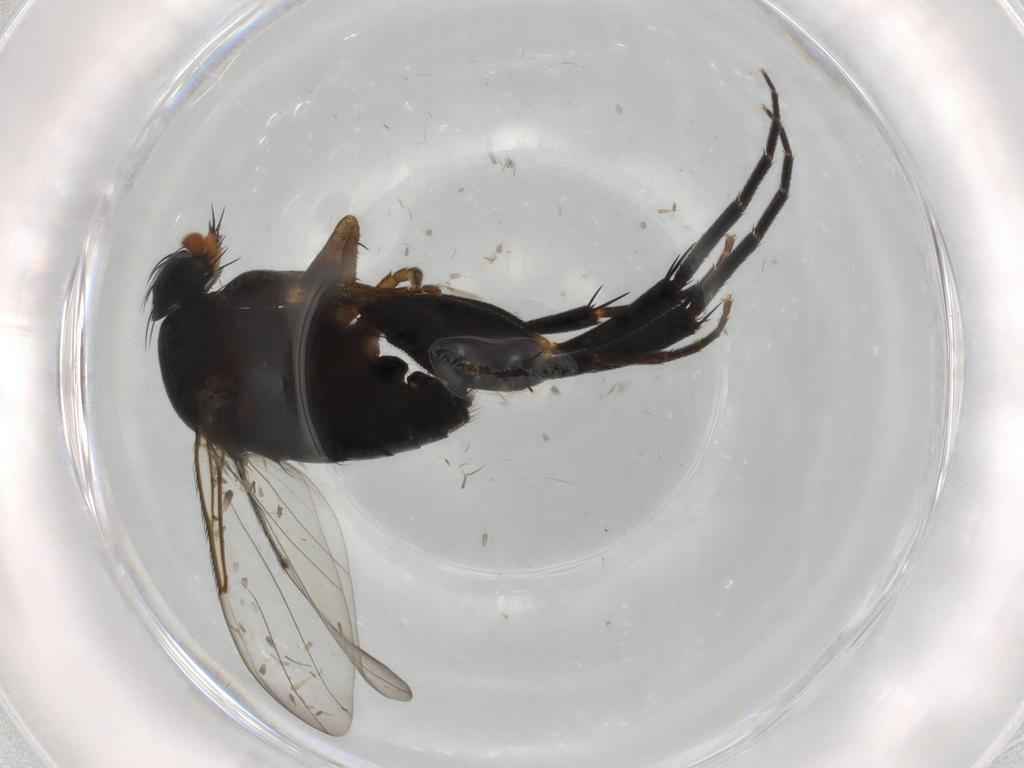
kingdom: Animalia
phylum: Arthropoda
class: Insecta
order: Diptera
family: Phoridae
